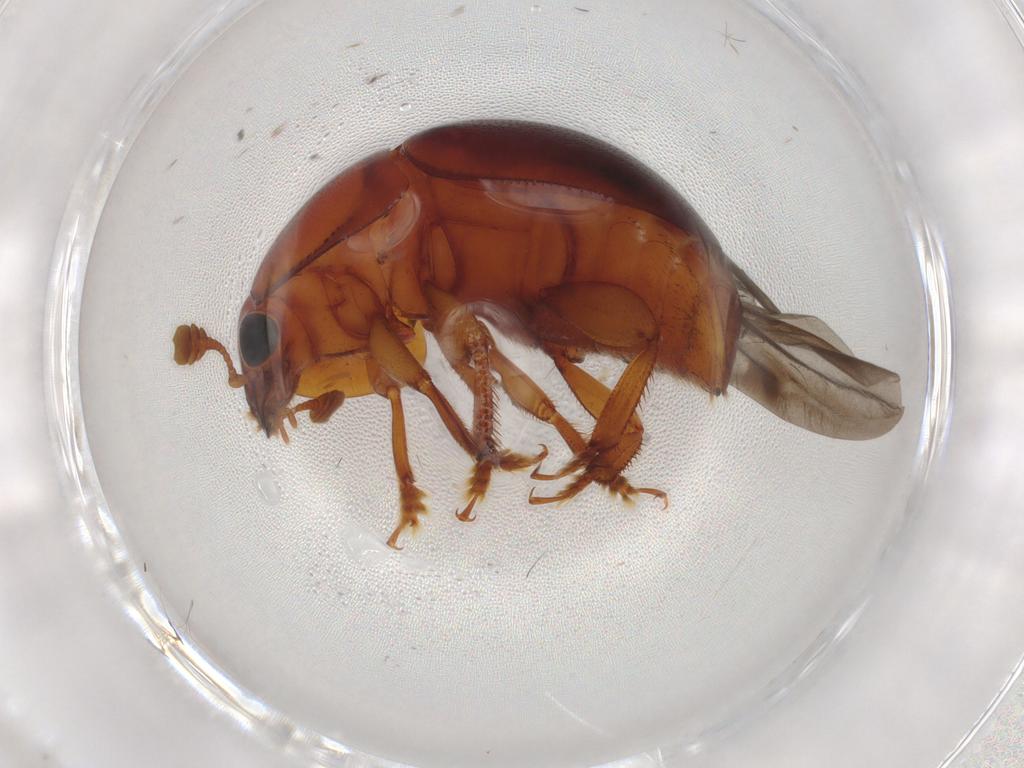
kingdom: Animalia
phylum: Arthropoda
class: Insecta
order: Coleoptera
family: Nitidulidae
